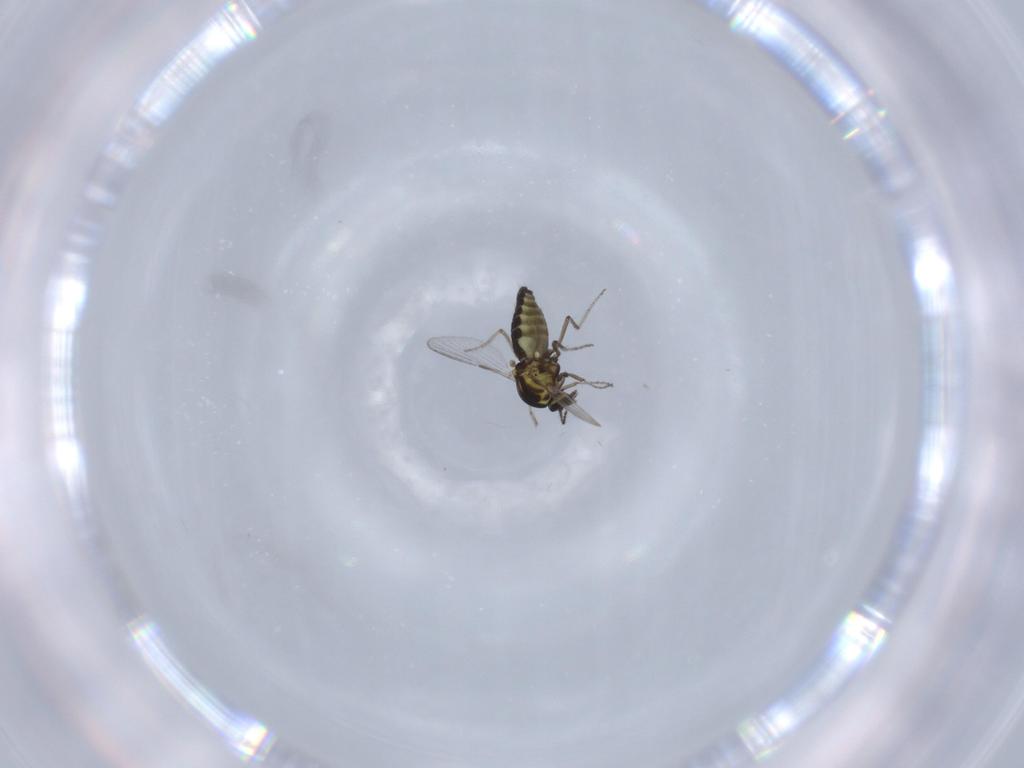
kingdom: Animalia
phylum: Arthropoda
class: Insecta
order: Diptera
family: Ceratopogonidae
